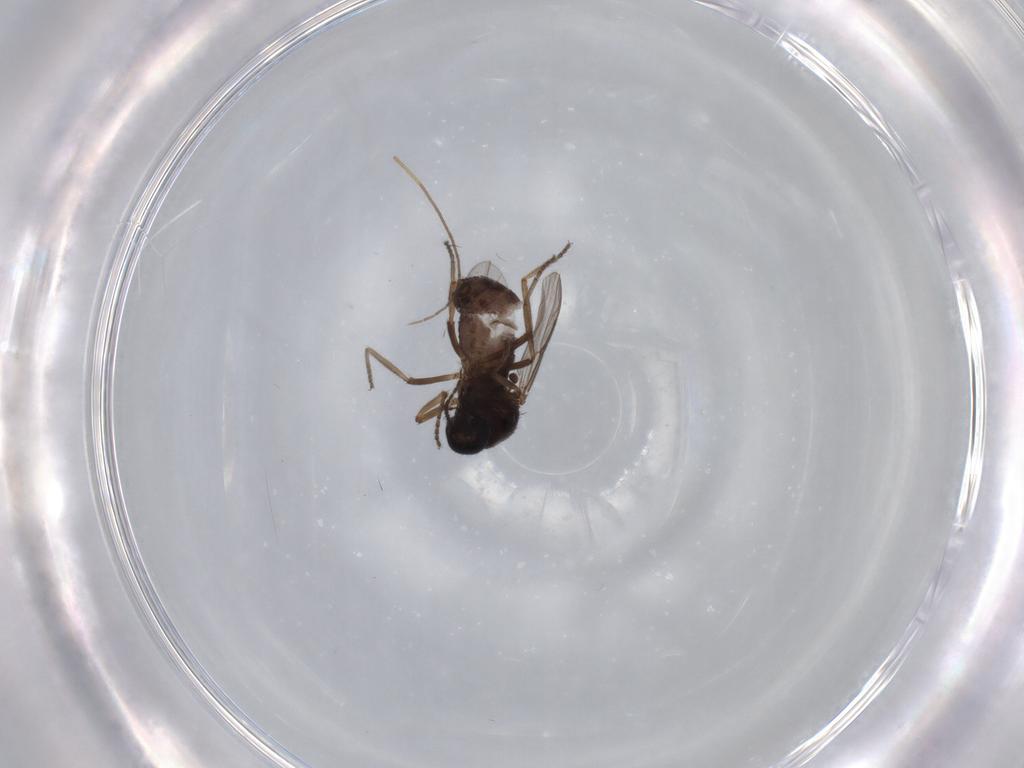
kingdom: Animalia
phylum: Arthropoda
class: Insecta
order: Diptera
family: Ceratopogonidae
